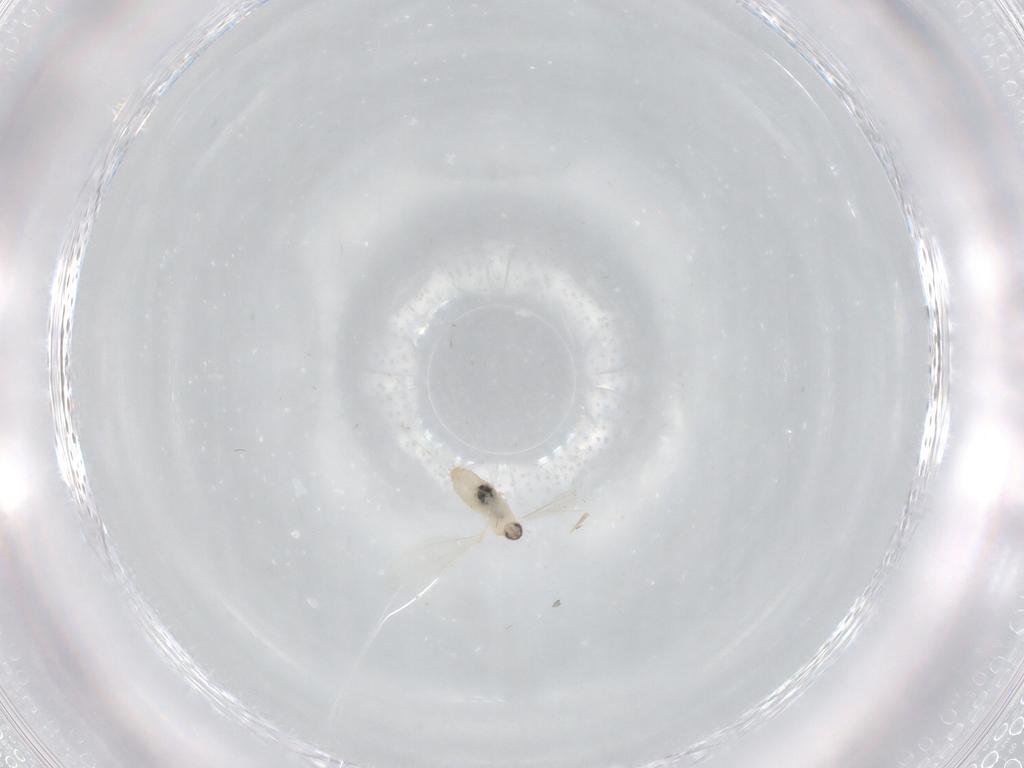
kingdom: Animalia
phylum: Arthropoda
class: Insecta
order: Diptera
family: Cecidomyiidae
